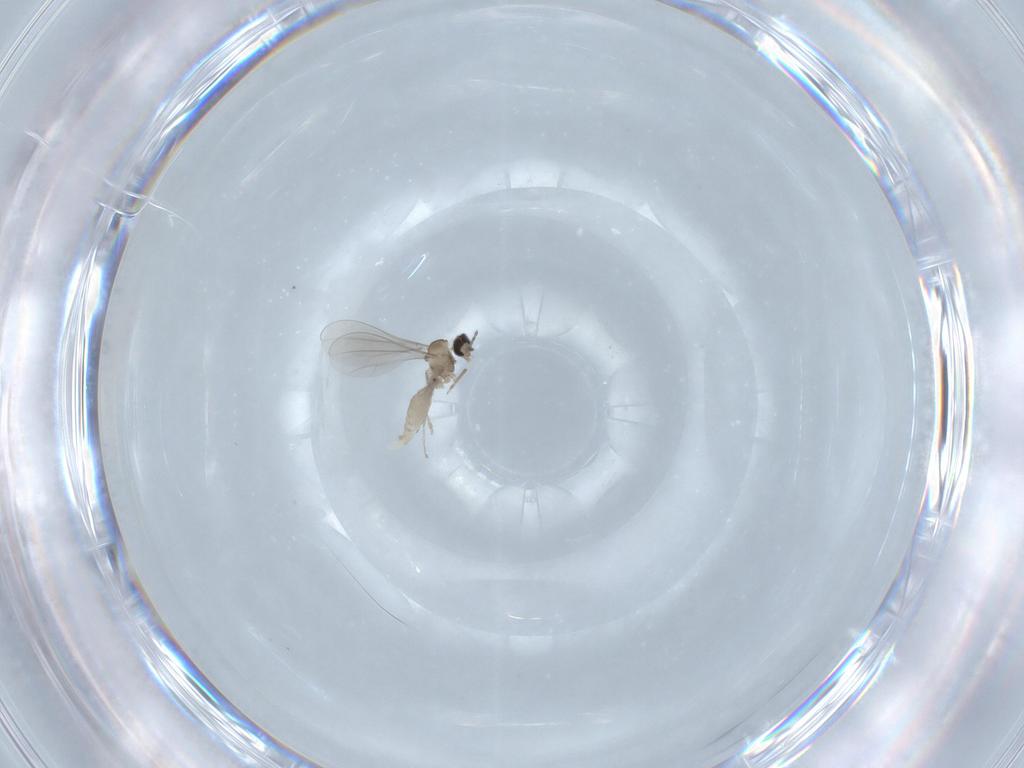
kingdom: Animalia
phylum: Arthropoda
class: Insecta
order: Diptera
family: Cecidomyiidae
